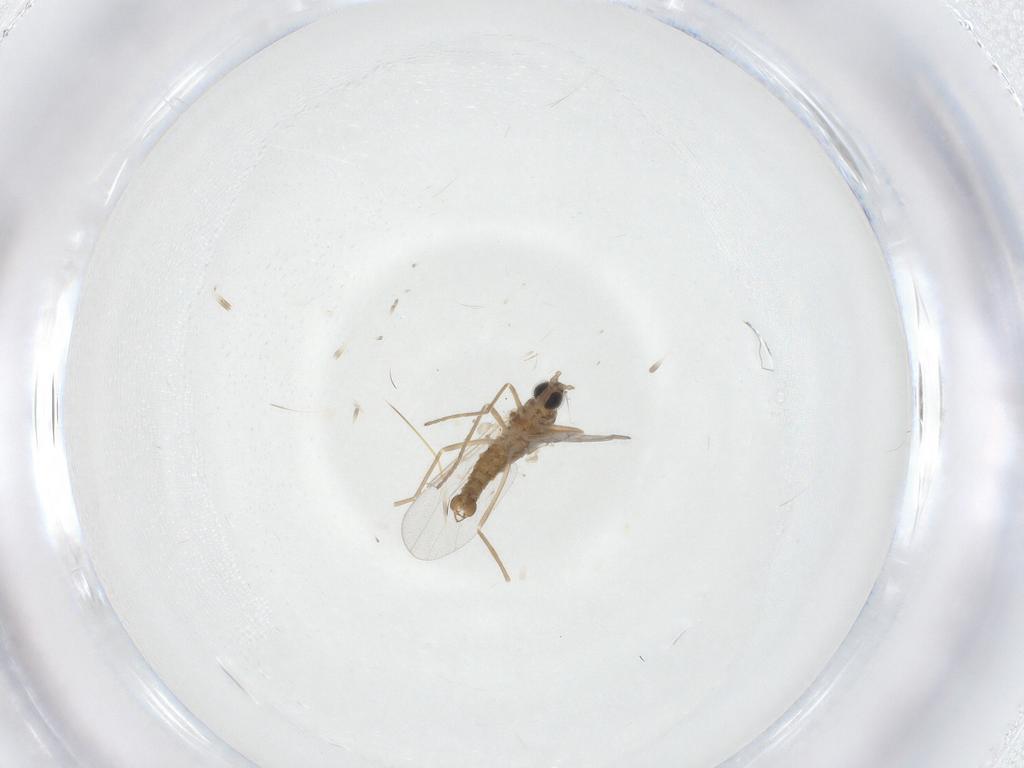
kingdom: Animalia
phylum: Arthropoda
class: Insecta
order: Diptera
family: Cecidomyiidae
